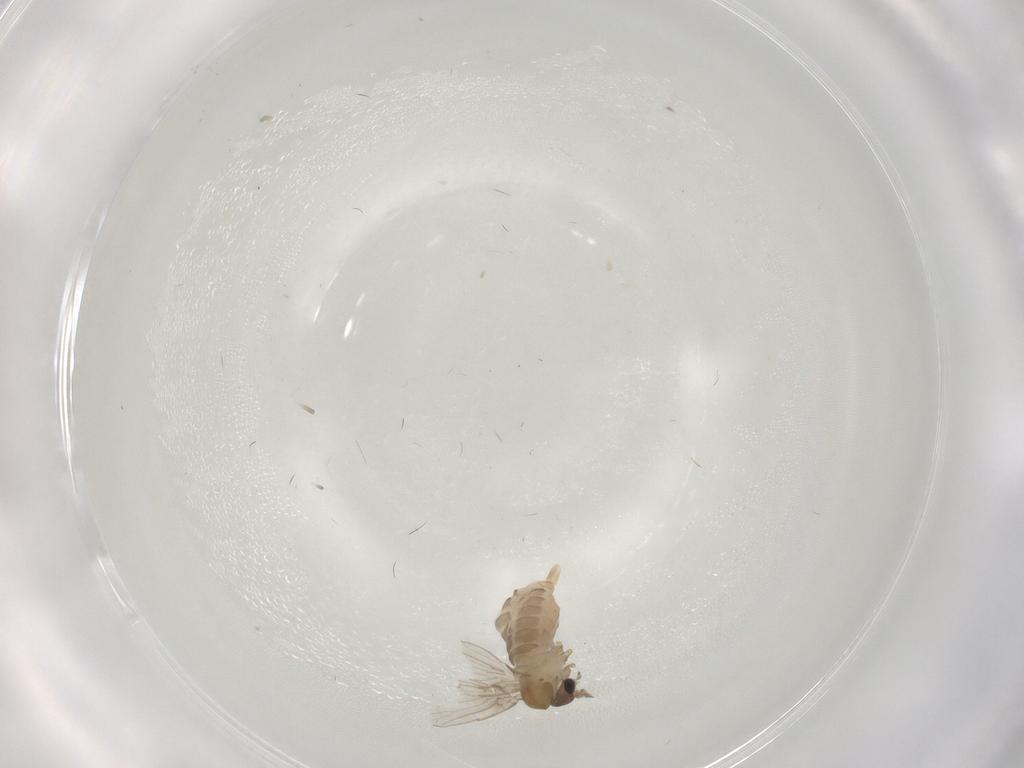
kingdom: Animalia
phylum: Arthropoda
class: Insecta
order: Diptera
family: Psychodidae
